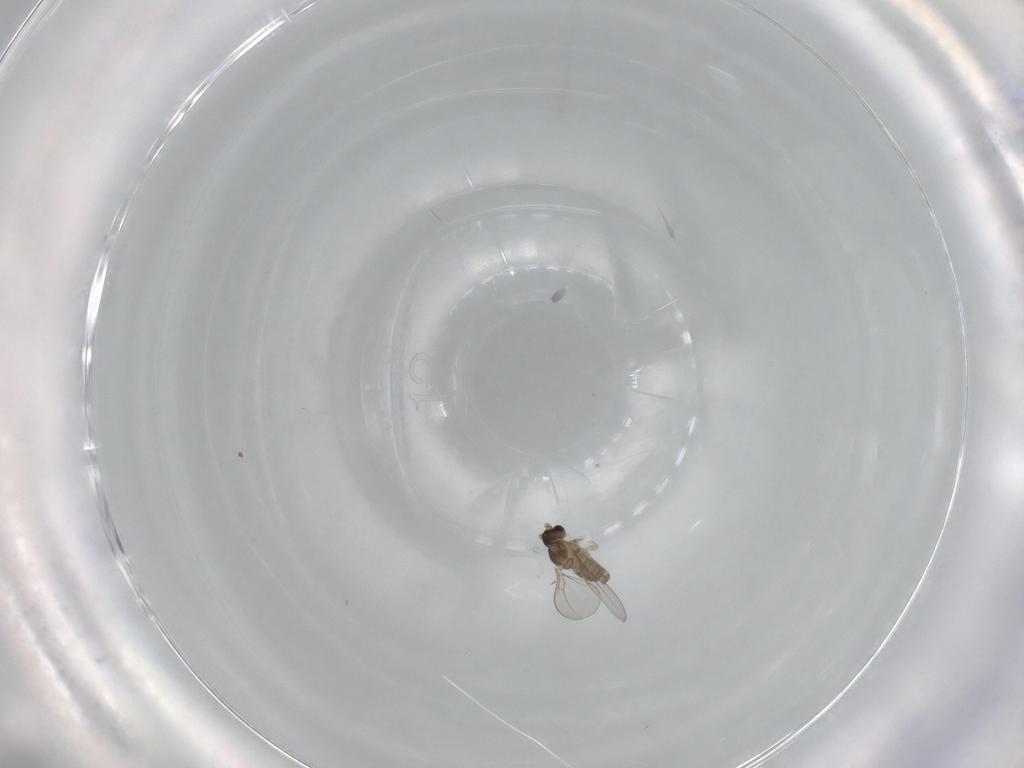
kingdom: Animalia
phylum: Arthropoda
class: Insecta
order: Diptera
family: Cecidomyiidae
